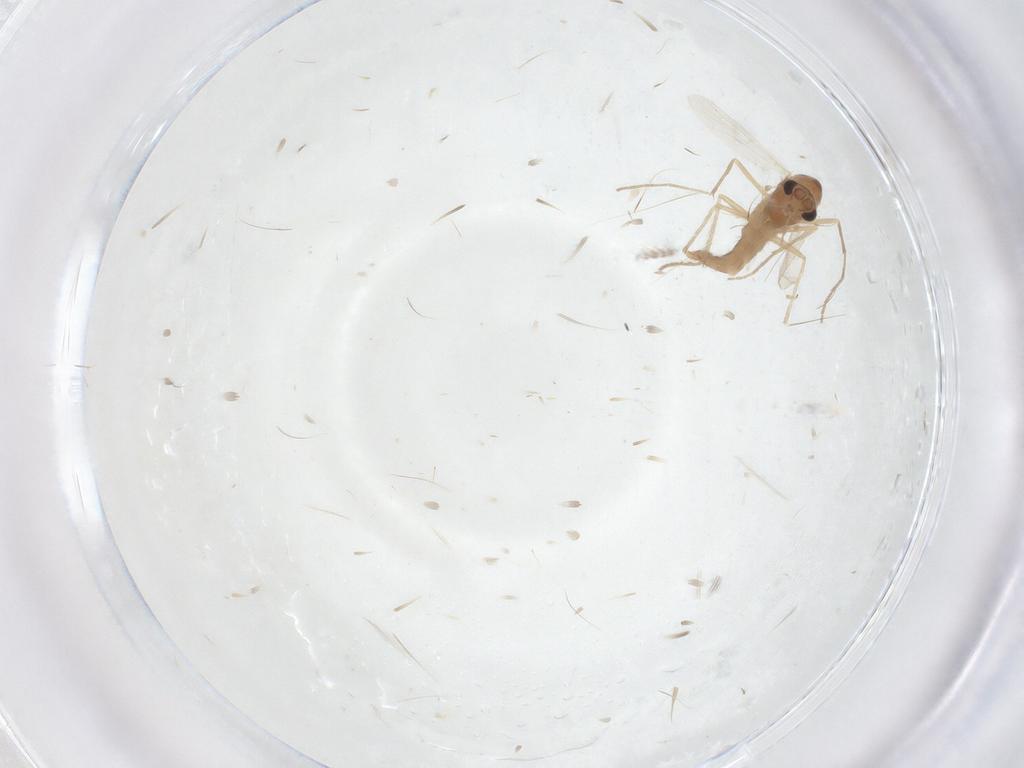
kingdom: Animalia
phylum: Arthropoda
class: Insecta
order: Diptera
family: Chironomidae
